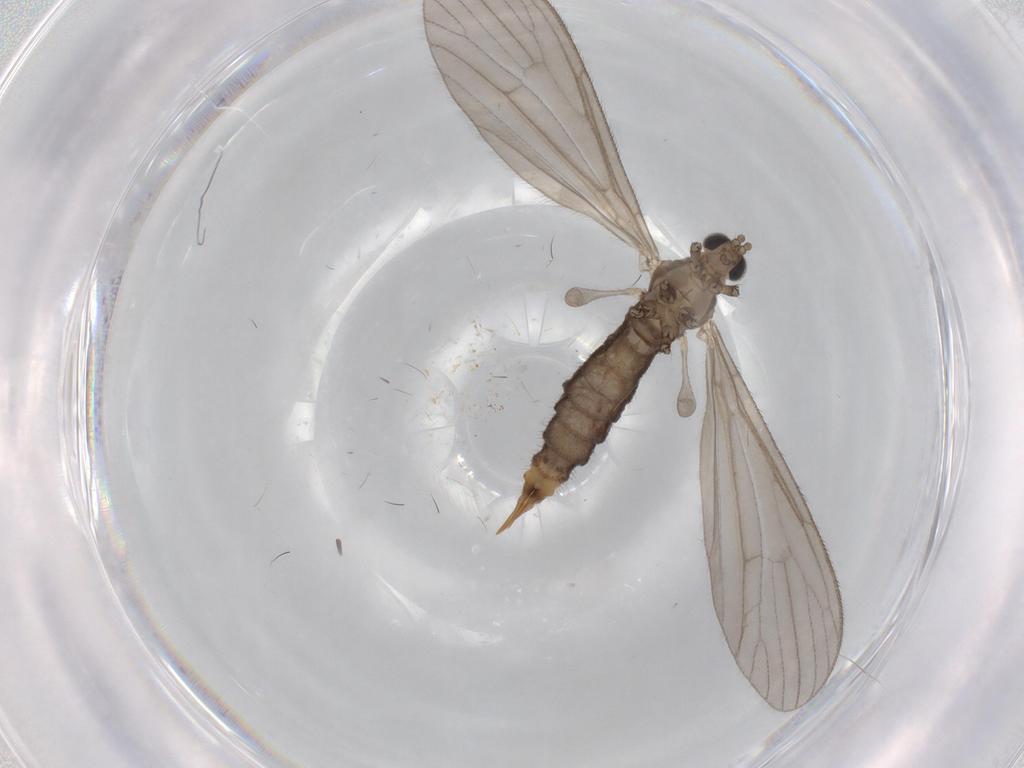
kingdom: Animalia
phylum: Arthropoda
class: Insecta
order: Diptera
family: Limoniidae
